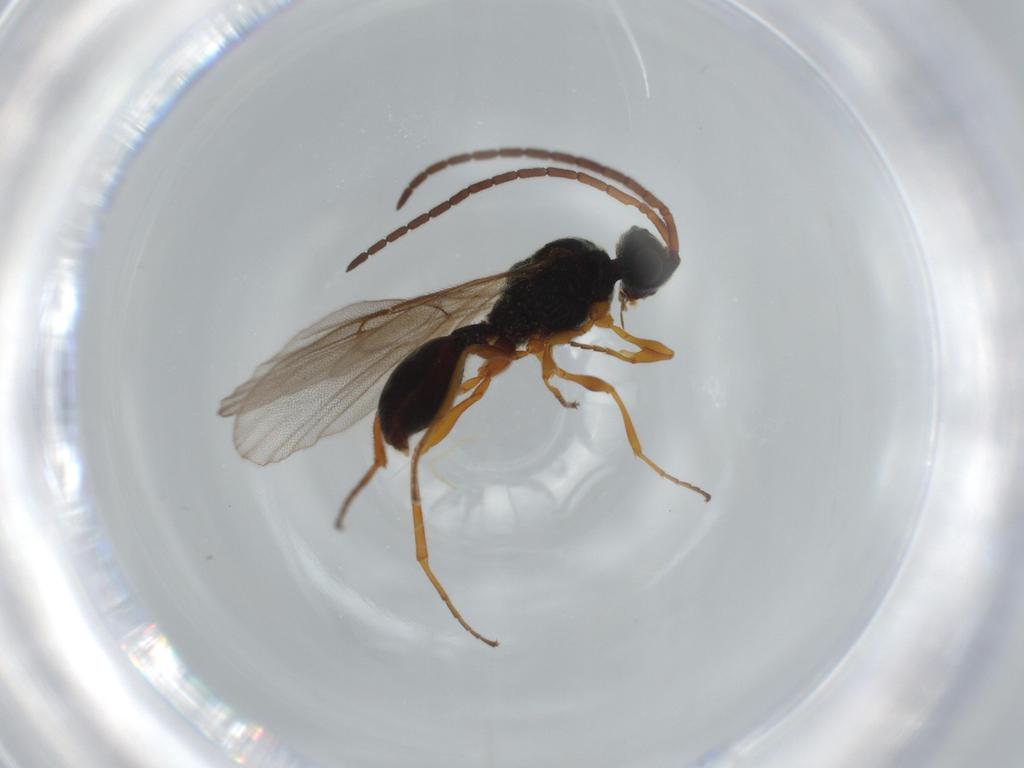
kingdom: Animalia
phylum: Arthropoda
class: Insecta
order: Hymenoptera
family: Diapriidae
